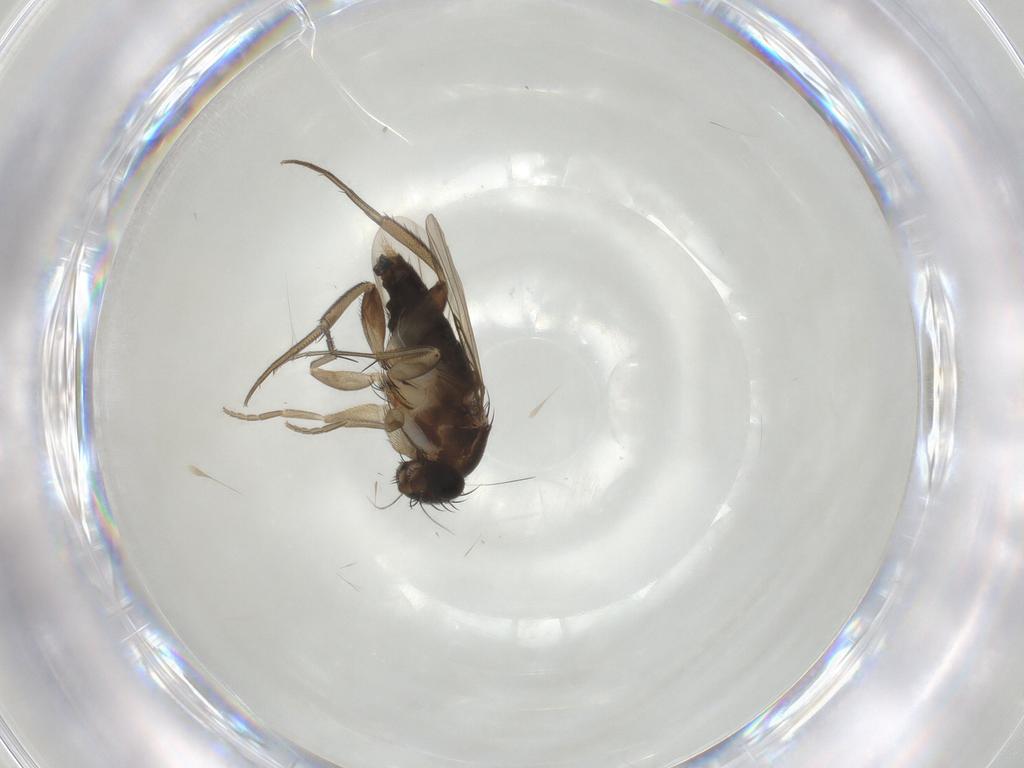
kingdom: Animalia
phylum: Arthropoda
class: Insecta
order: Diptera
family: Phoridae
